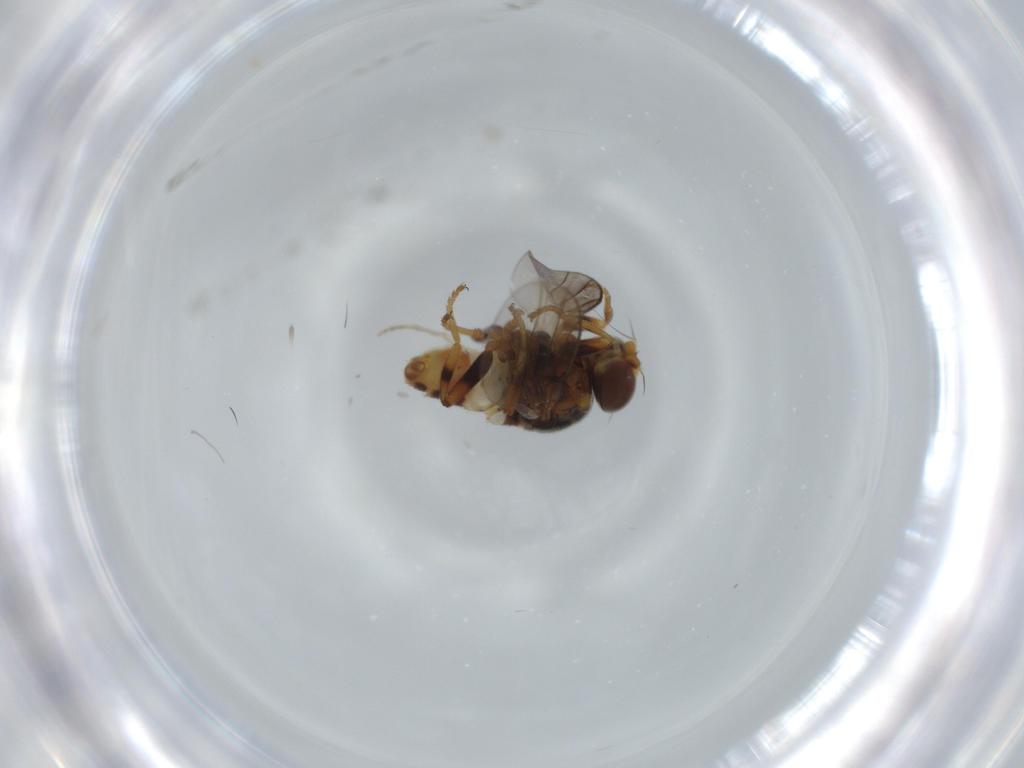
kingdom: Animalia
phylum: Arthropoda
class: Insecta
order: Diptera
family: Chloropidae
